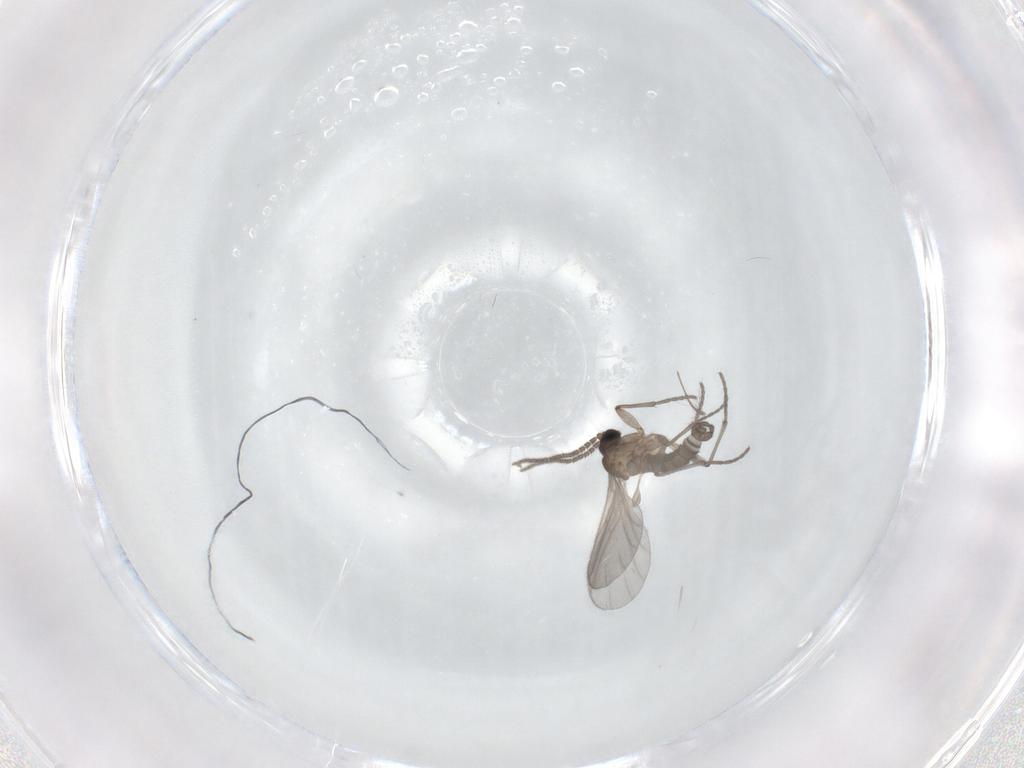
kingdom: Animalia
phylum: Arthropoda
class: Insecta
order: Diptera
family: Sciaridae
